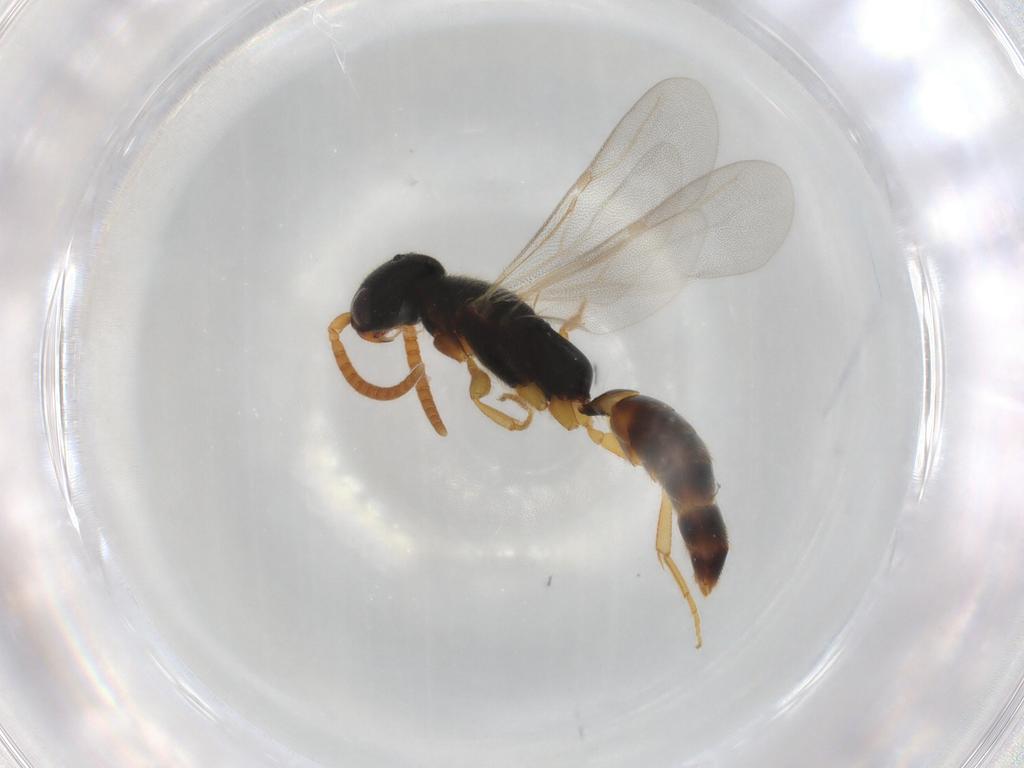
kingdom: Animalia
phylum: Arthropoda
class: Insecta
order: Hymenoptera
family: Bethylidae
